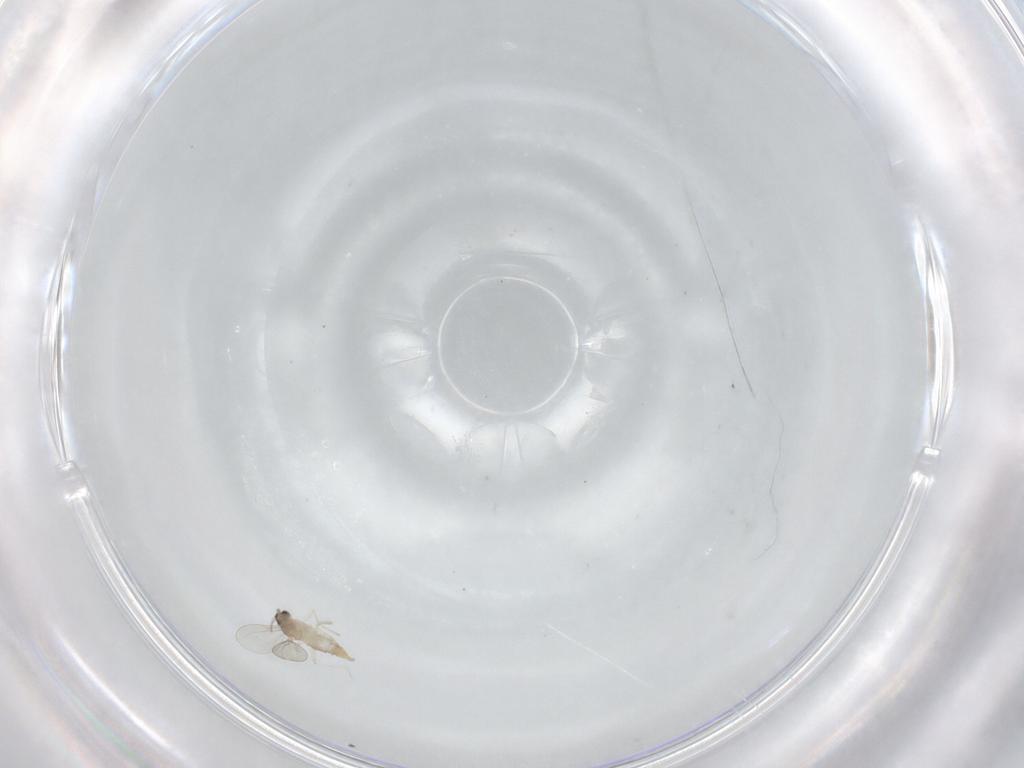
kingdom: Animalia
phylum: Arthropoda
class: Insecta
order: Diptera
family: Cecidomyiidae
